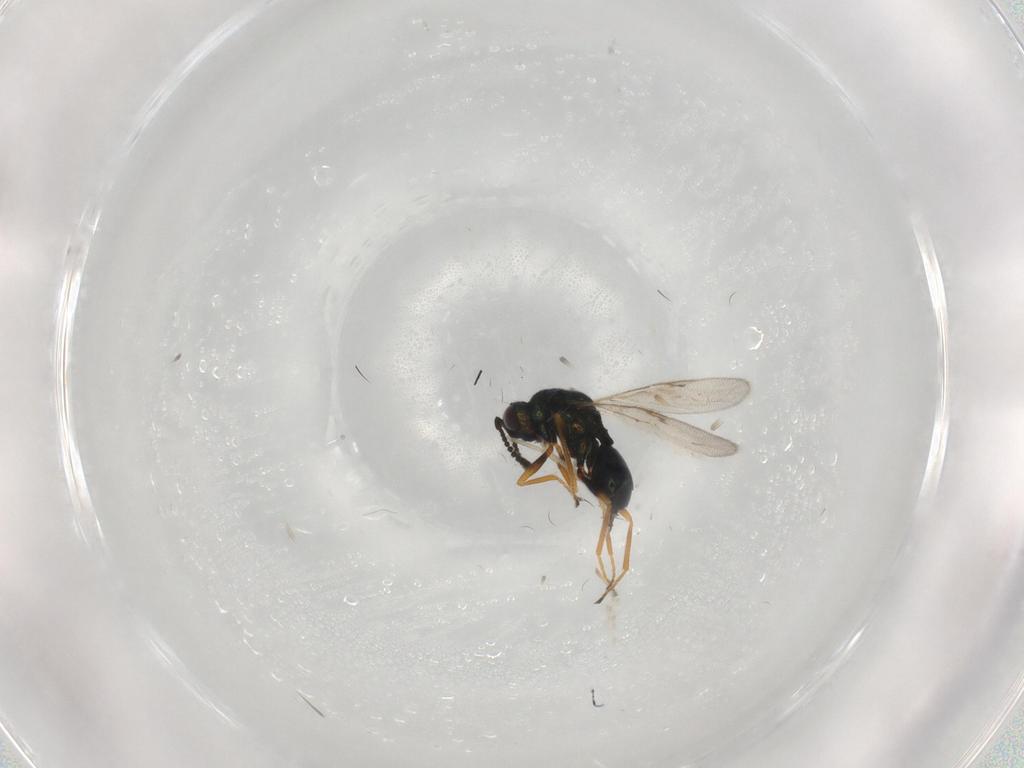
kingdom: Animalia
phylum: Arthropoda
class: Insecta
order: Hymenoptera
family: Pteromalidae
